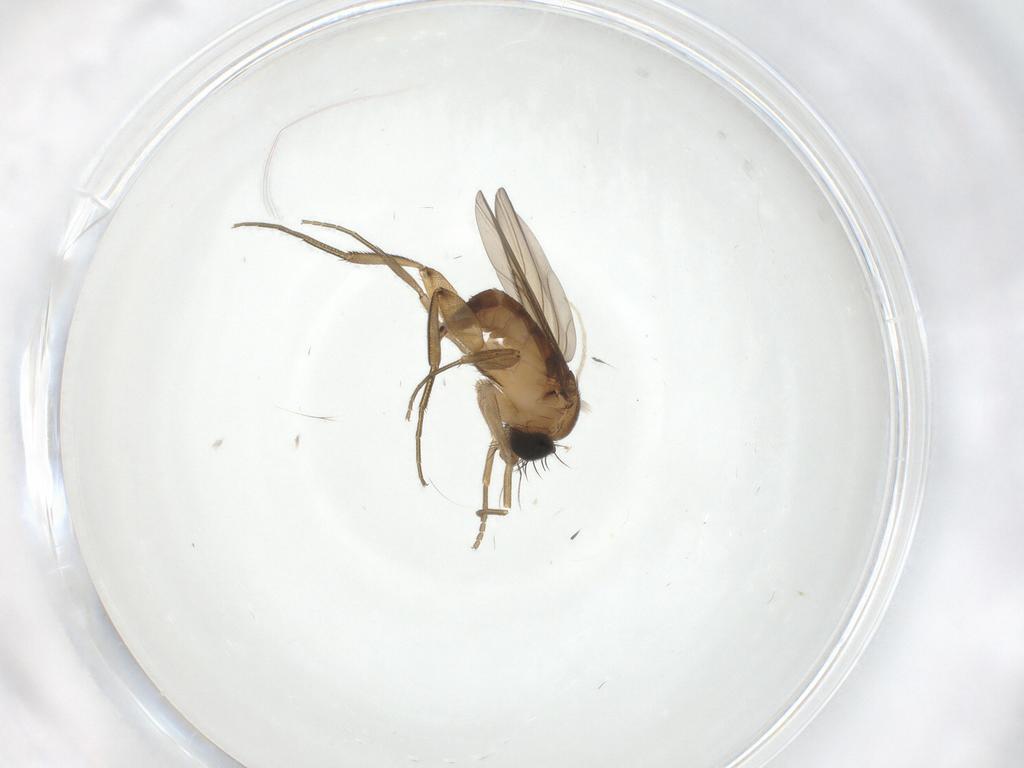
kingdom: Animalia
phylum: Arthropoda
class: Insecta
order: Diptera
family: Phoridae
